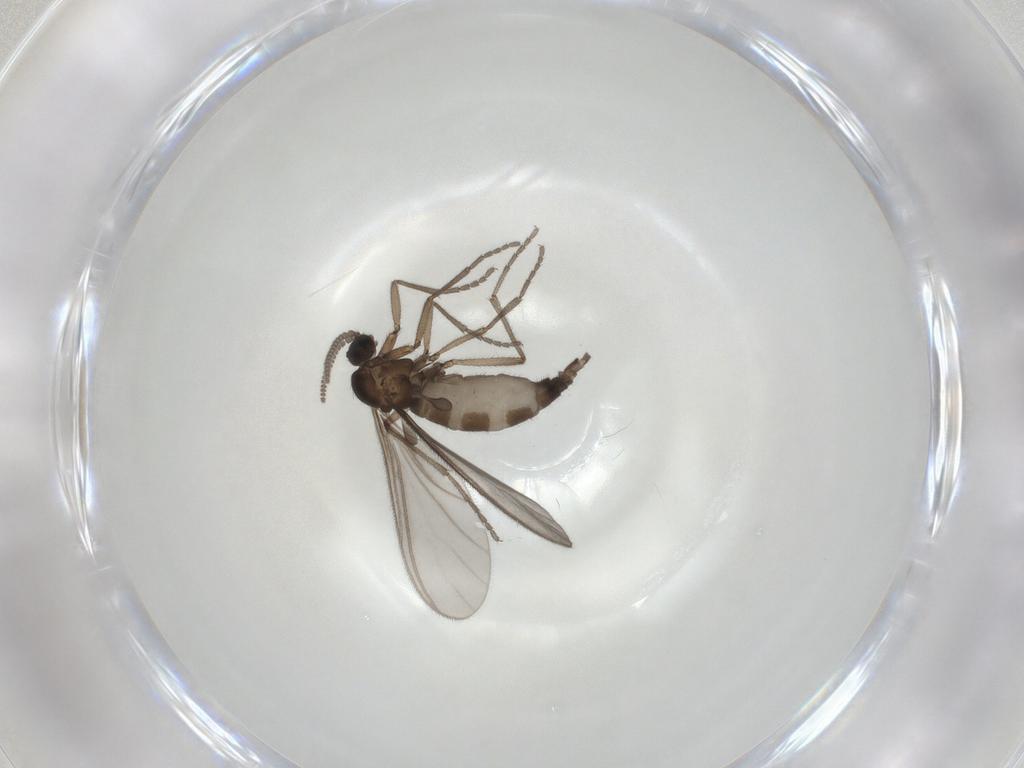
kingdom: Animalia
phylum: Arthropoda
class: Insecta
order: Diptera
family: Sciaridae
